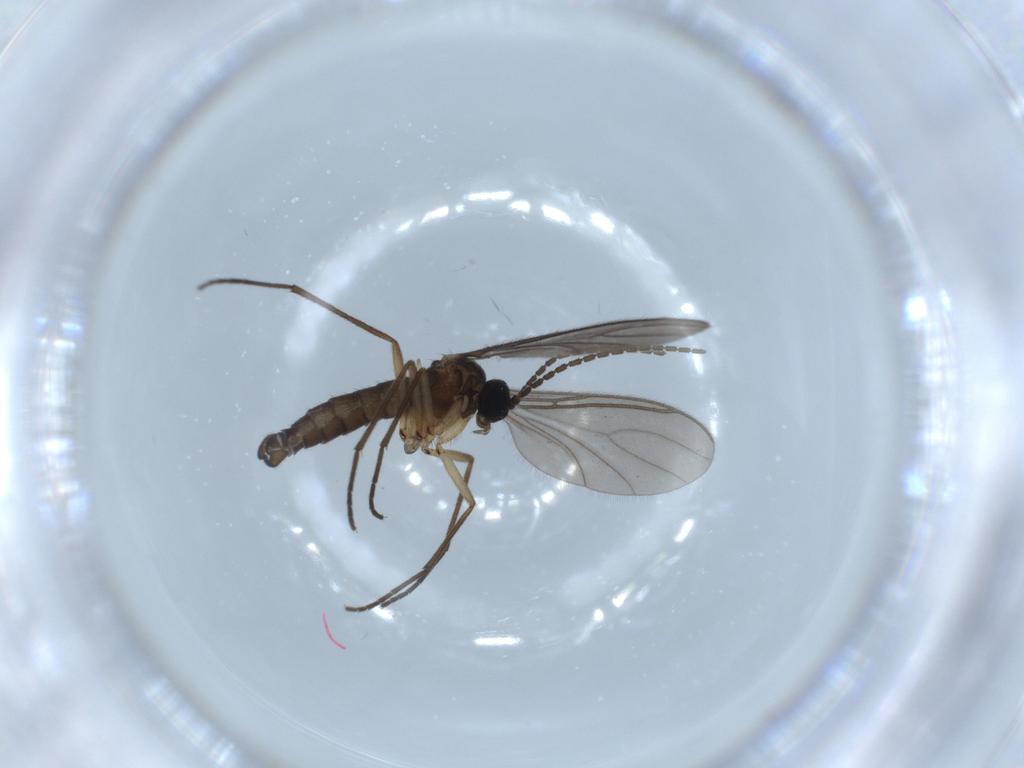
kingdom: Animalia
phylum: Arthropoda
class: Insecta
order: Diptera
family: Sciaridae
